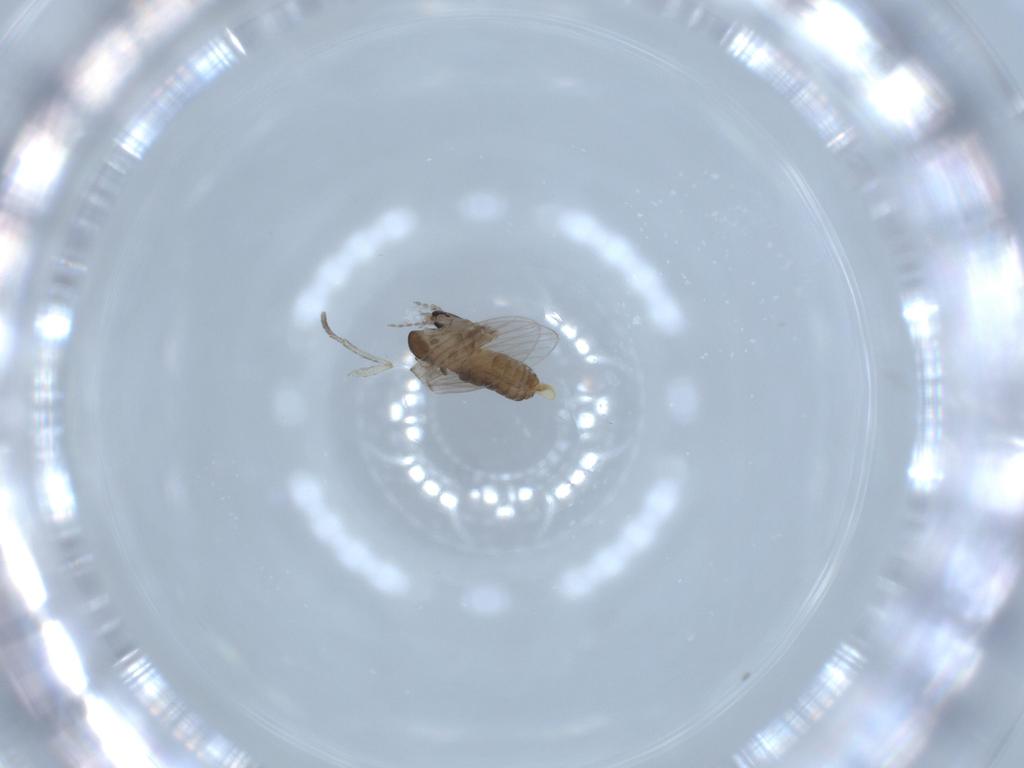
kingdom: Animalia
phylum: Arthropoda
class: Insecta
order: Diptera
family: Psychodidae
